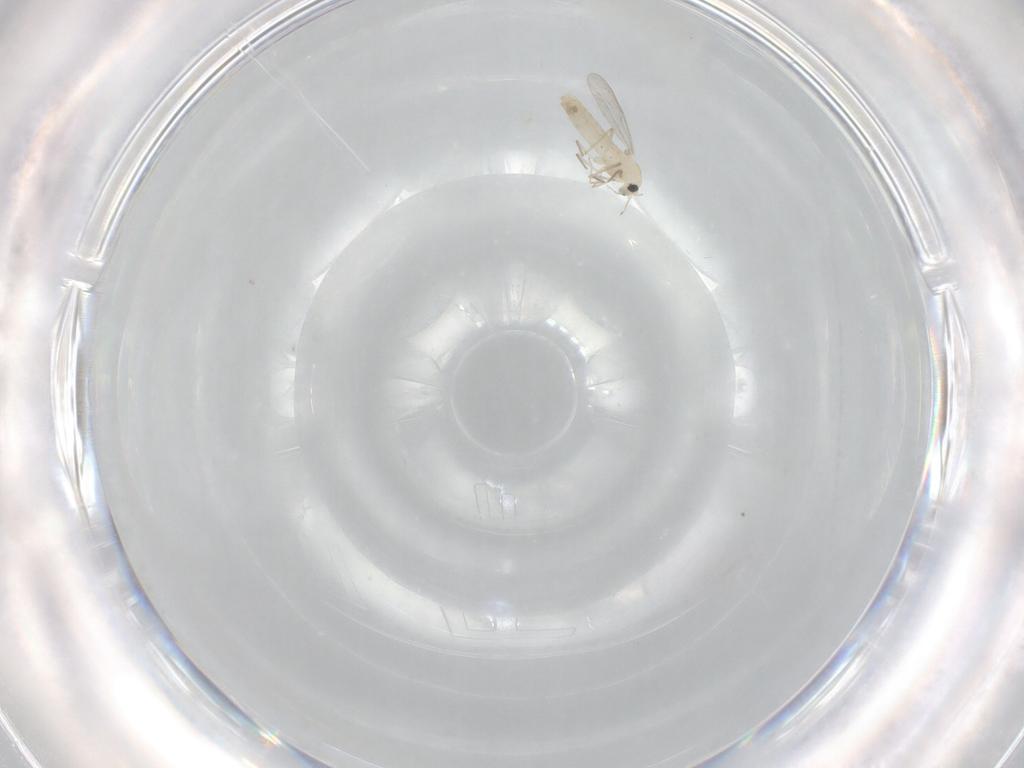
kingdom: Animalia
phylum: Arthropoda
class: Insecta
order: Diptera
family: Chironomidae
